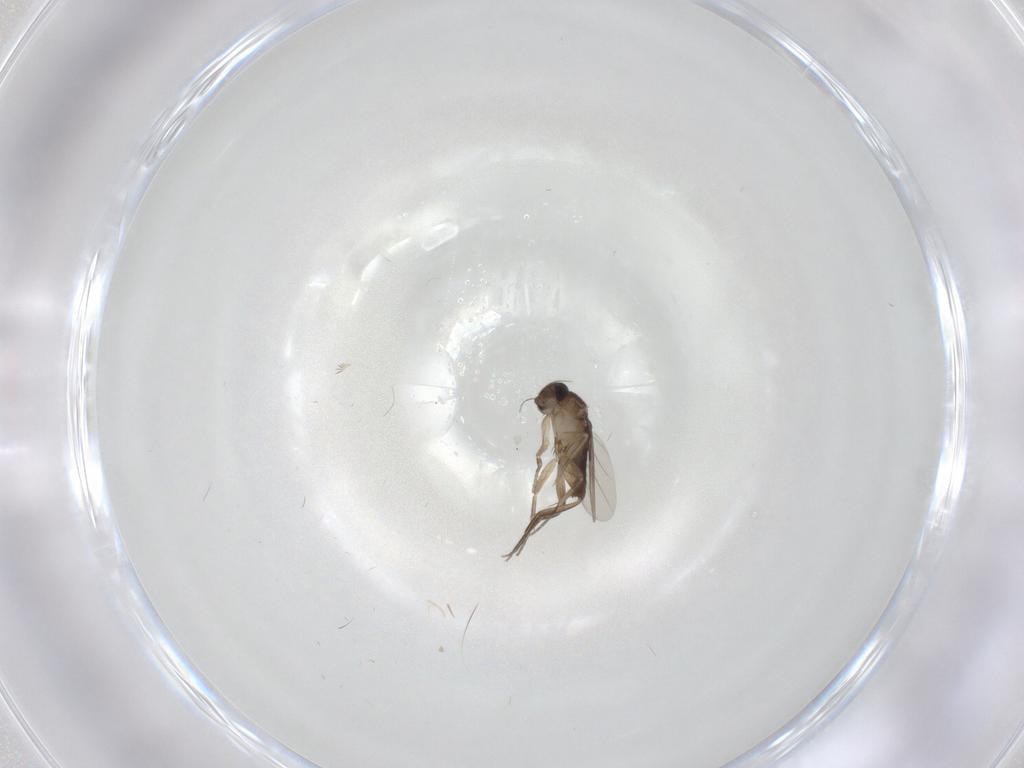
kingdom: Animalia
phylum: Arthropoda
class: Insecta
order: Diptera
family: Phoridae
